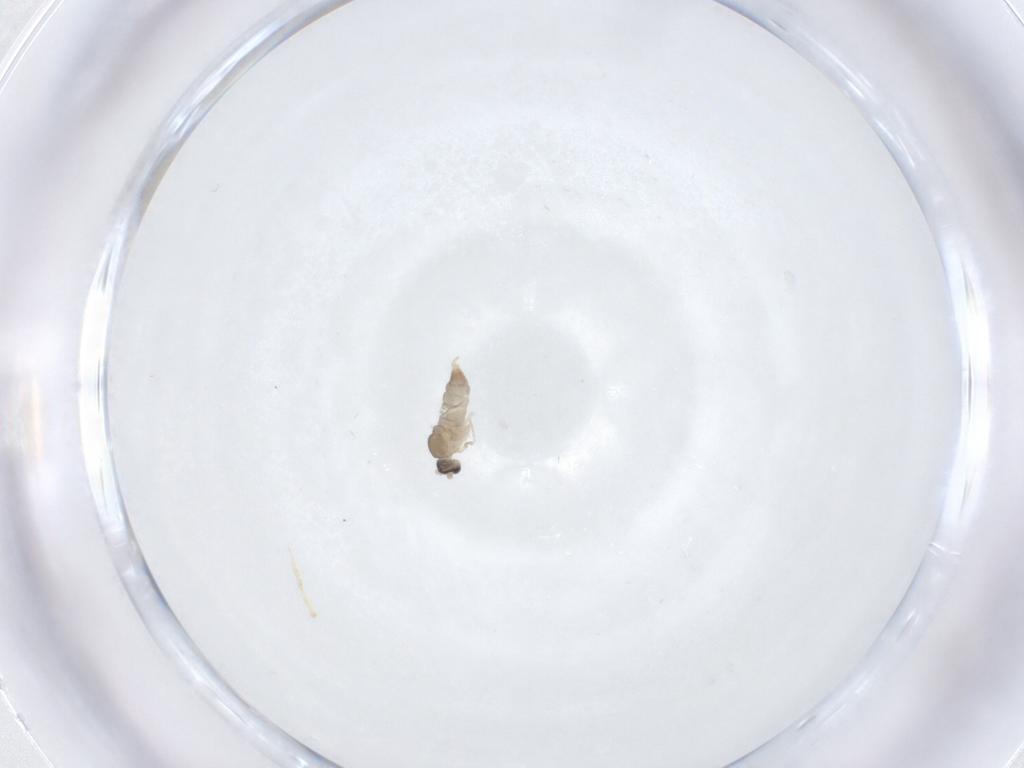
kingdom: Animalia
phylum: Arthropoda
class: Insecta
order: Diptera
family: Cecidomyiidae
